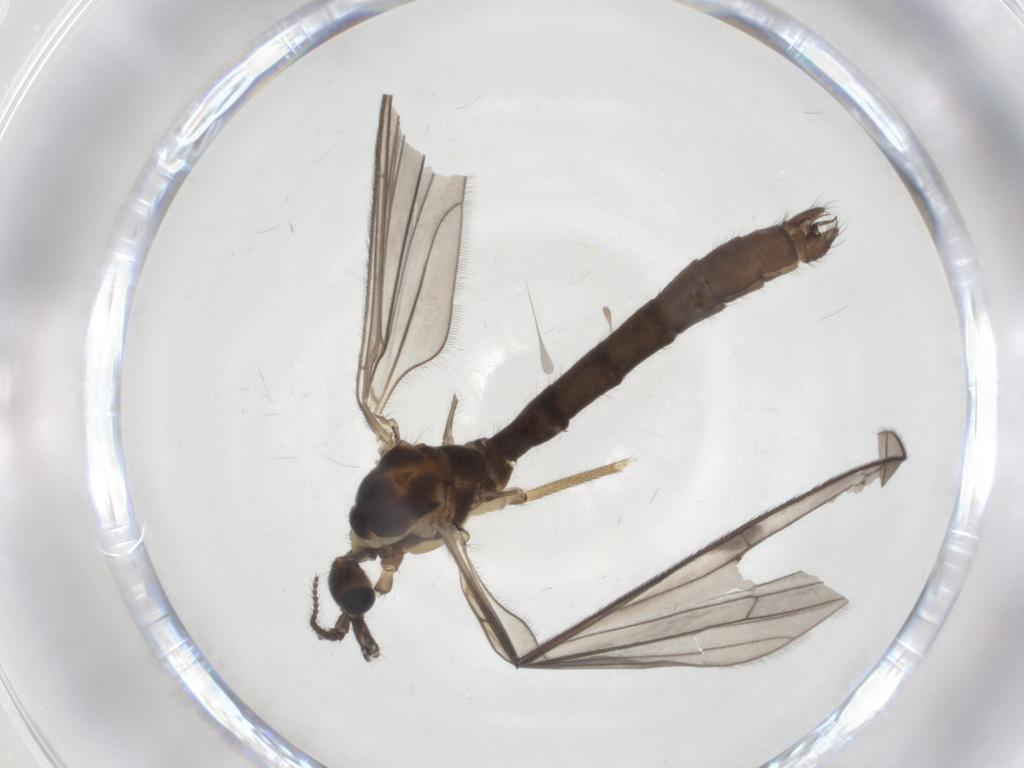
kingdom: Animalia
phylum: Arthropoda
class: Insecta
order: Diptera
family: Limoniidae
